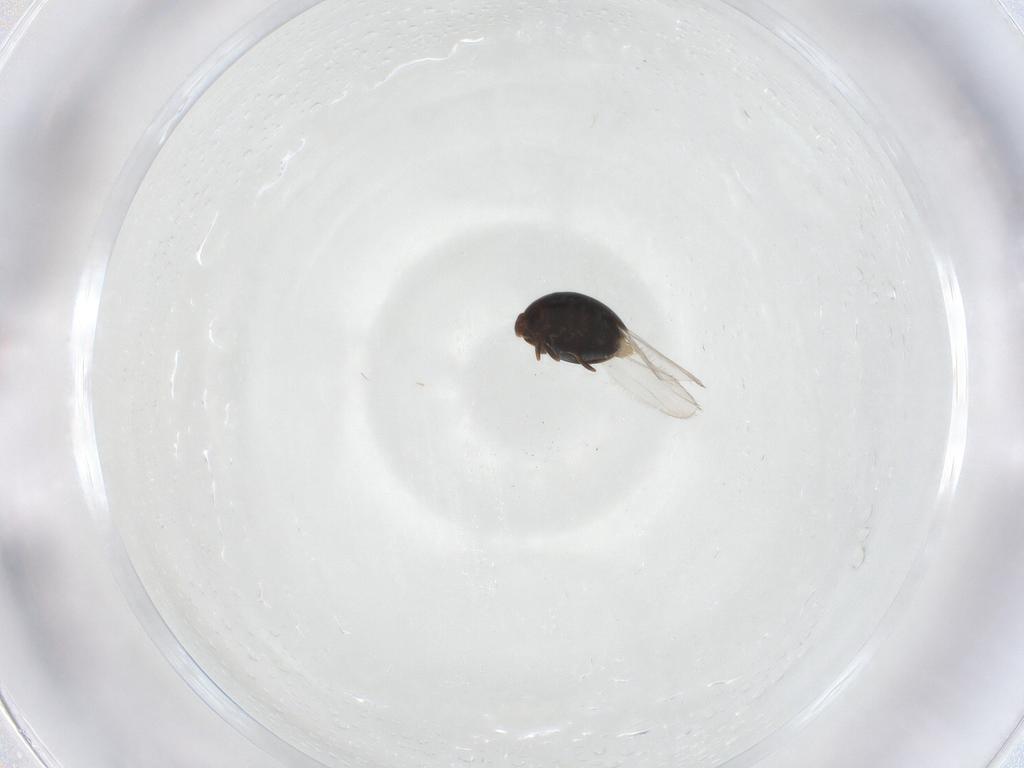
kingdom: Animalia
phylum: Arthropoda
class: Insecta
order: Coleoptera
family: Corylophidae
